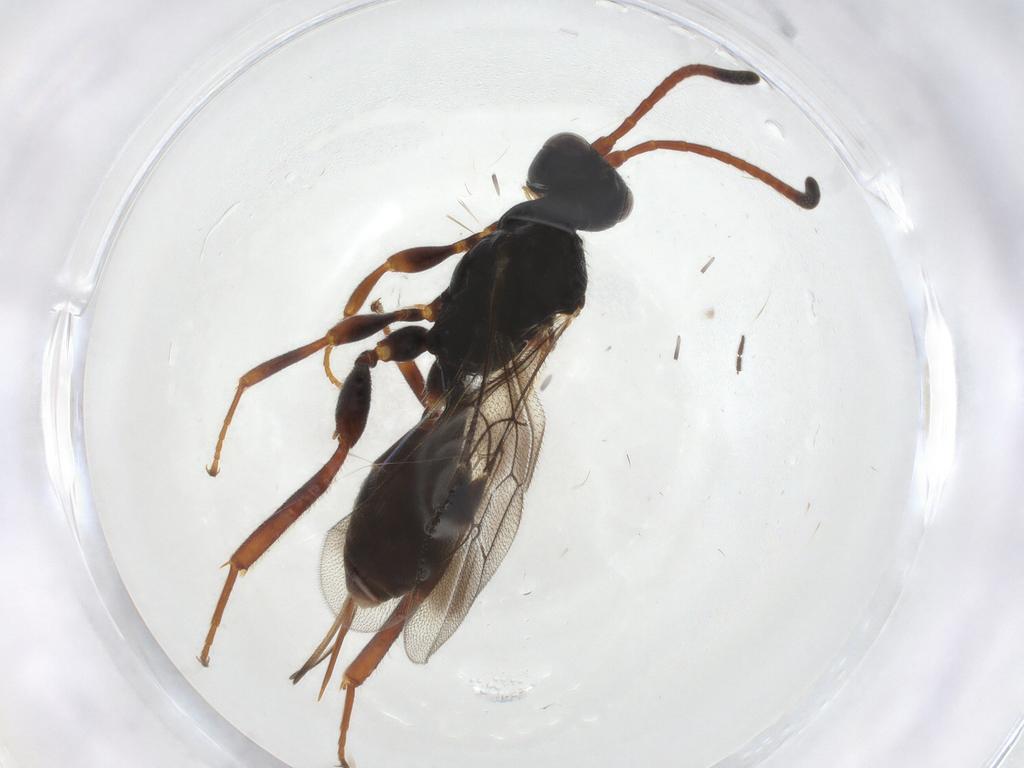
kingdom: Animalia
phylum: Arthropoda
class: Insecta
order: Hymenoptera
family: Ichneumonidae
